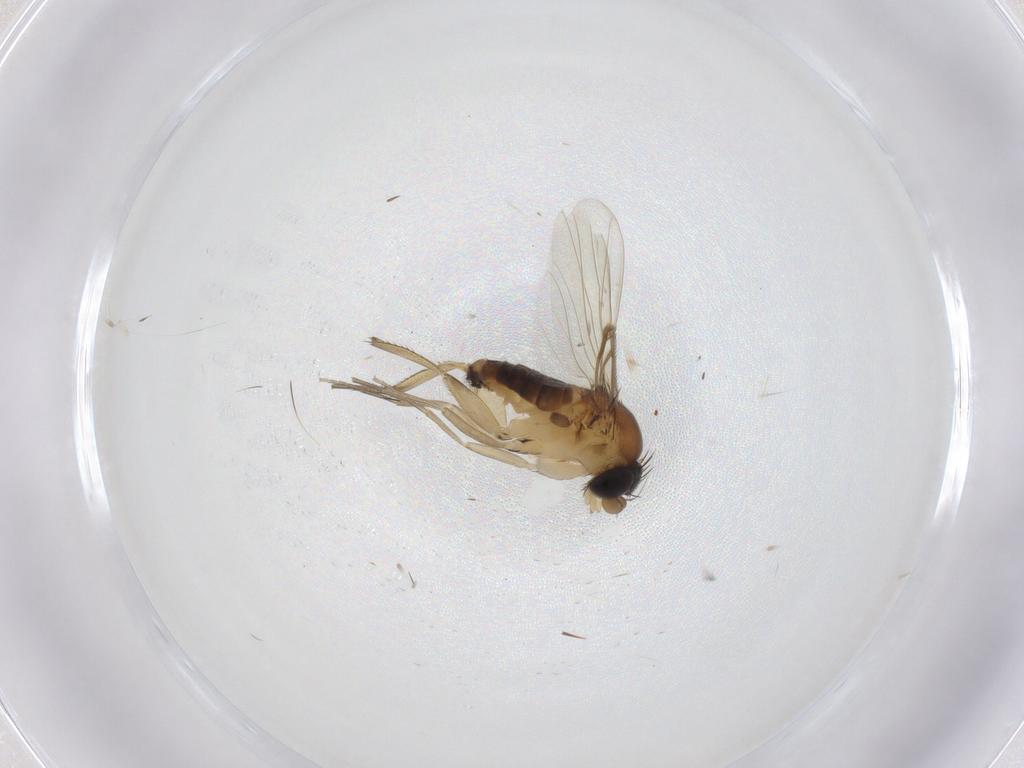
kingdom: Animalia
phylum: Arthropoda
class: Insecta
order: Diptera
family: Phoridae
